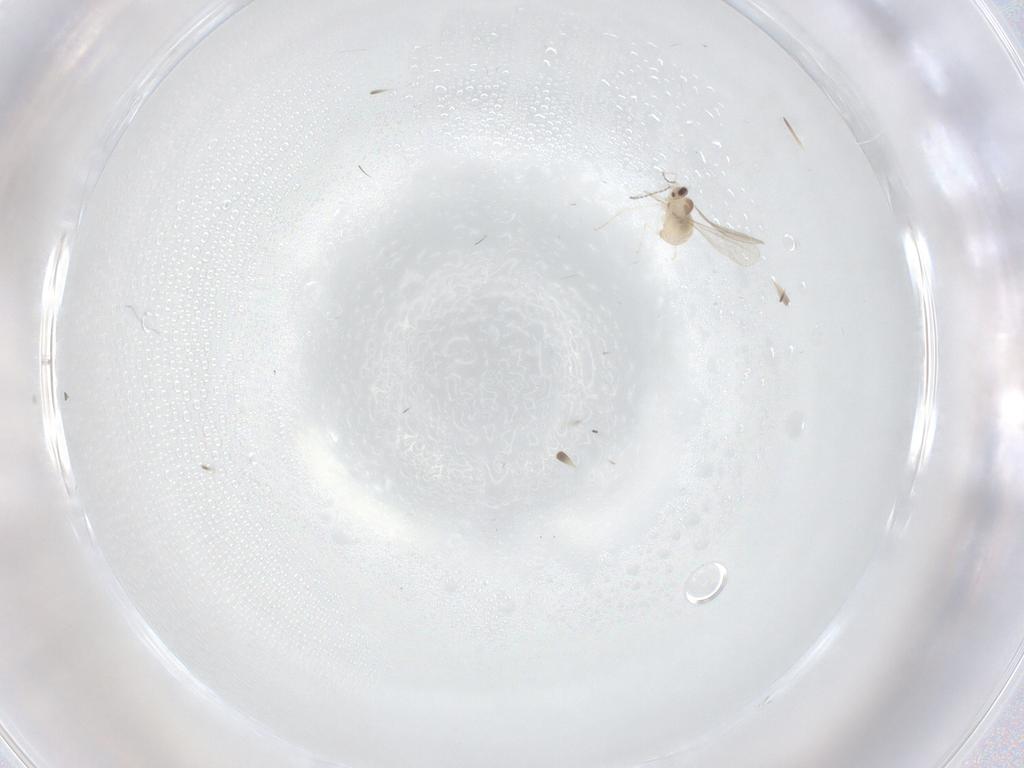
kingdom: Animalia
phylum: Arthropoda
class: Insecta
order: Diptera
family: Cecidomyiidae
